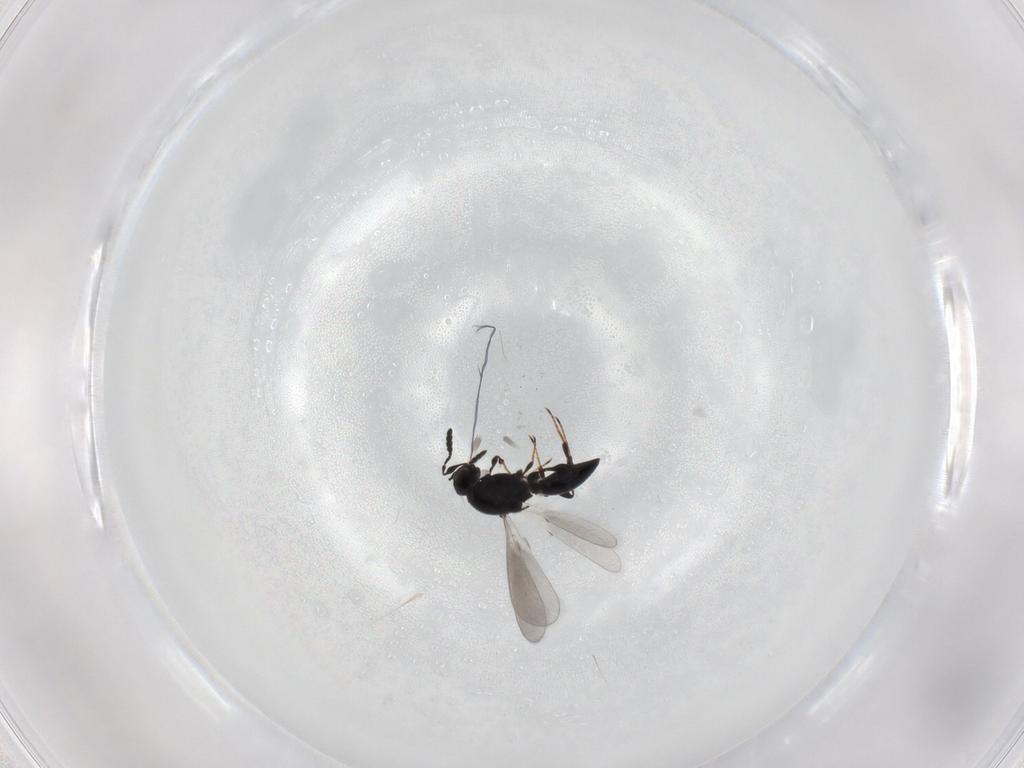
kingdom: Animalia
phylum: Arthropoda
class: Insecta
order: Hymenoptera
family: Platygastridae
